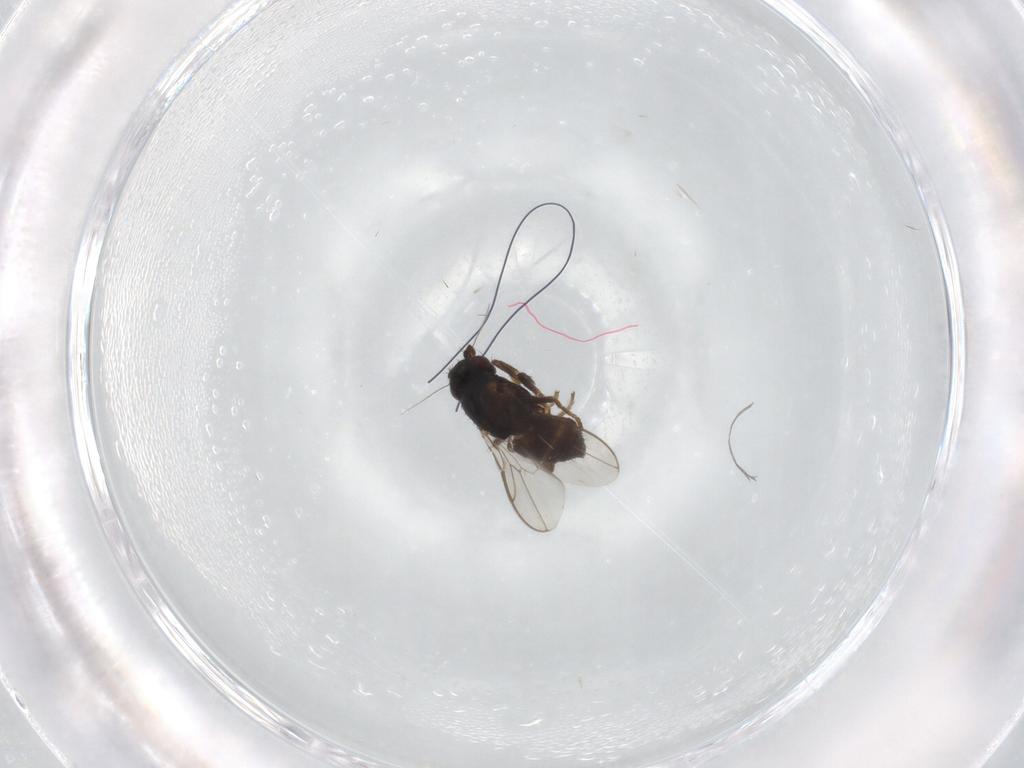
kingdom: Animalia
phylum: Arthropoda
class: Insecta
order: Diptera
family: Sphaeroceridae
